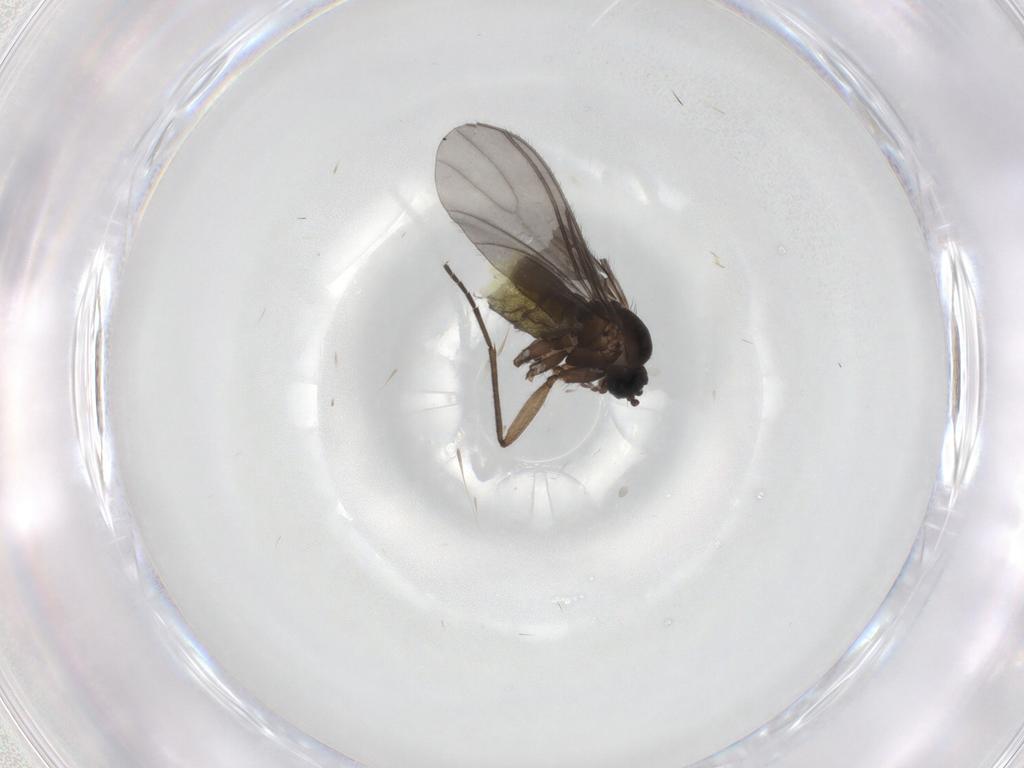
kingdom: Animalia
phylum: Arthropoda
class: Insecta
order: Diptera
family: Sciaridae
